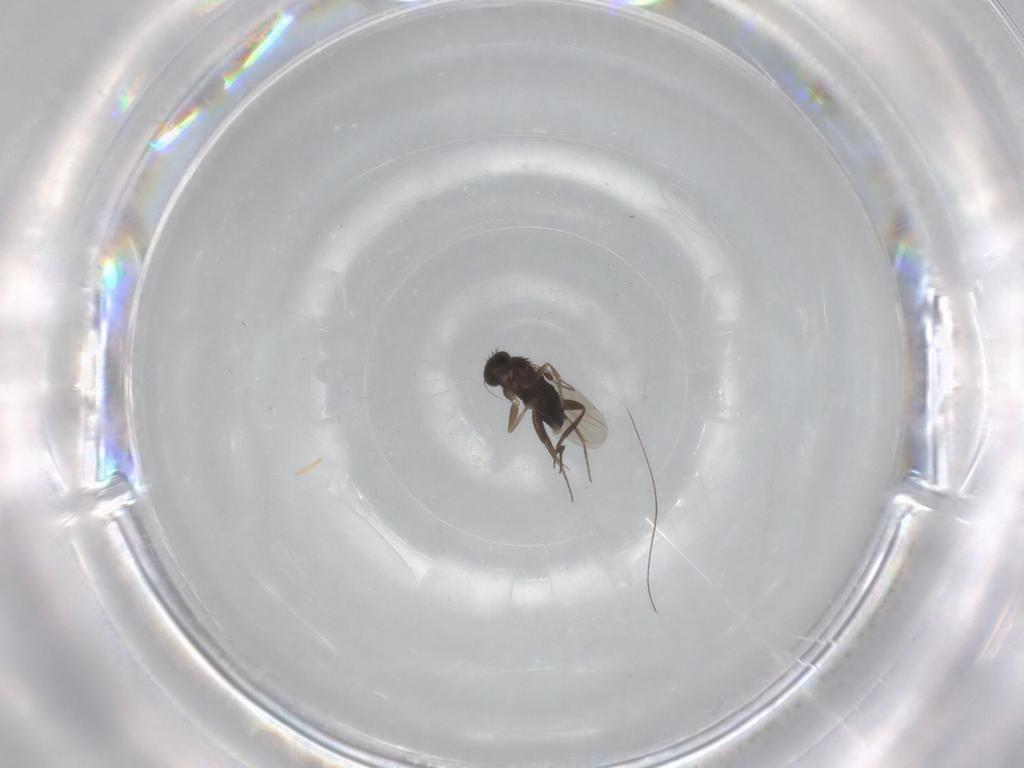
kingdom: Animalia
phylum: Arthropoda
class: Insecta
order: Diptera
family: Phoridae
